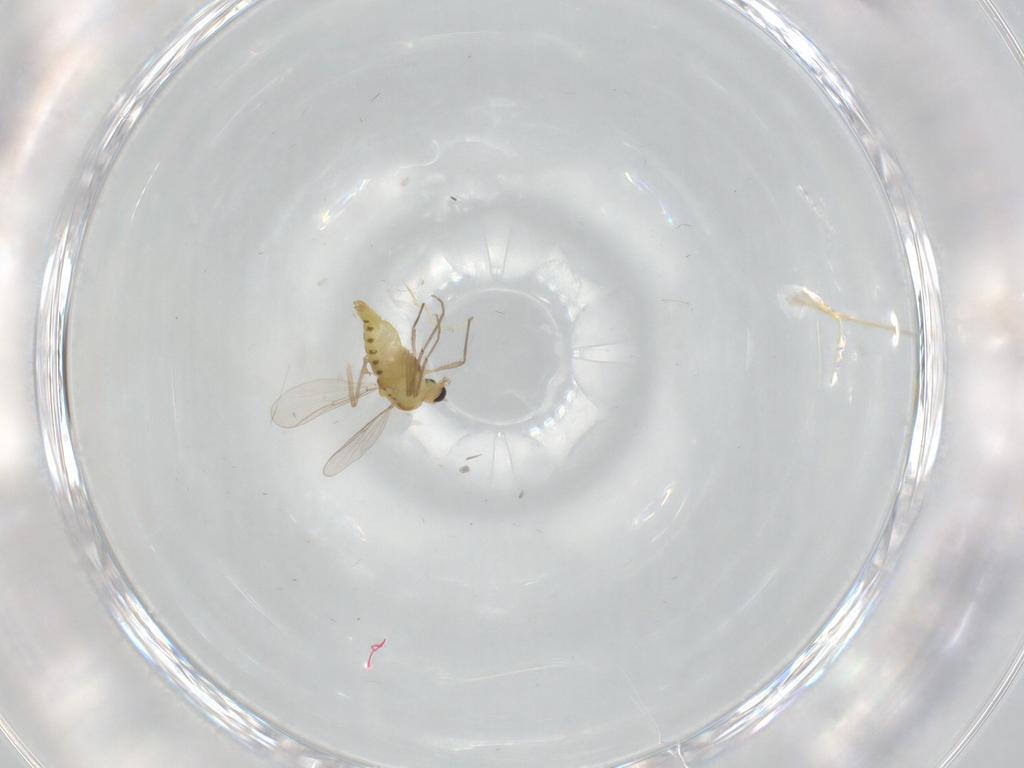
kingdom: Animalia
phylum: Arthropoda
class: Insecta
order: Diptera
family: Chironomidae
